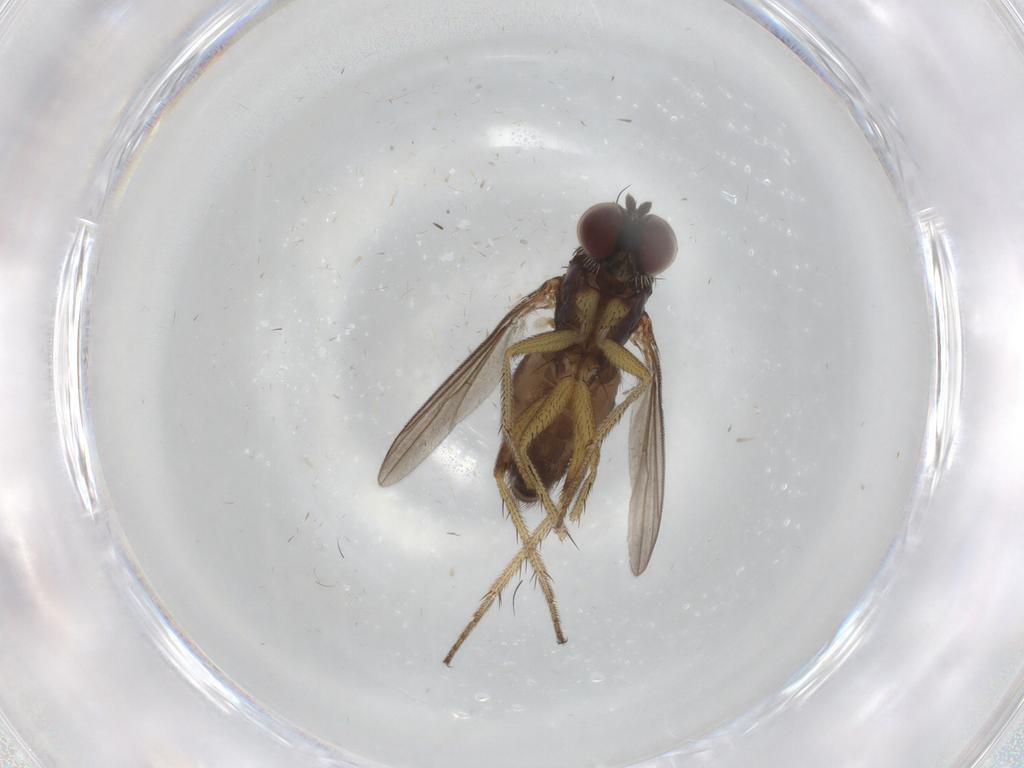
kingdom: Animalia
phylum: Arthropoda
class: Insecta
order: Diptera
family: Dolichopodidae
